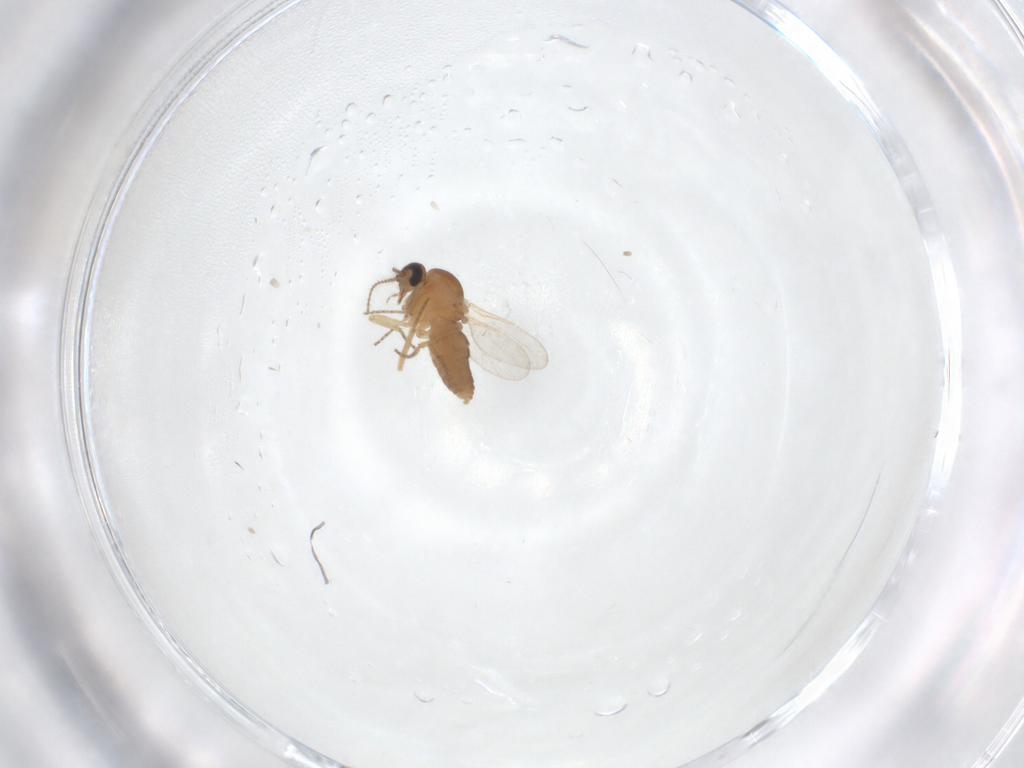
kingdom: Animalia
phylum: Arthropoda
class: Insecta
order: Diptera
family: Ceratopogonidae
